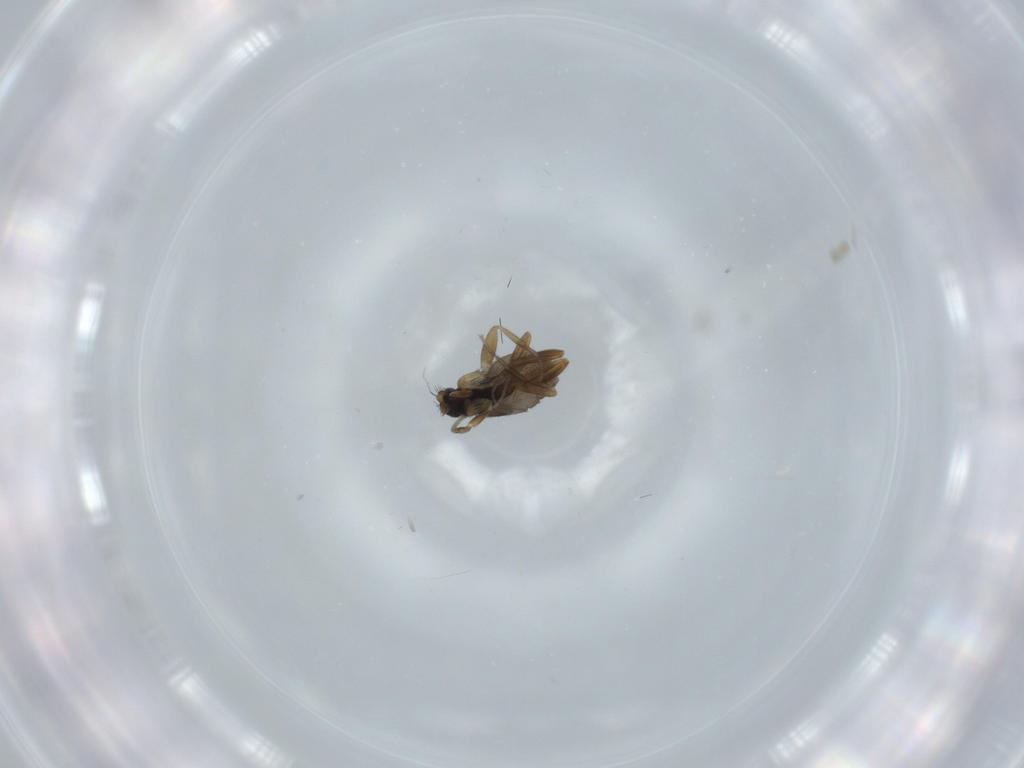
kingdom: Animalia
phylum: Arthropoda
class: Insecta
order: Diptera
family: Phoridae
